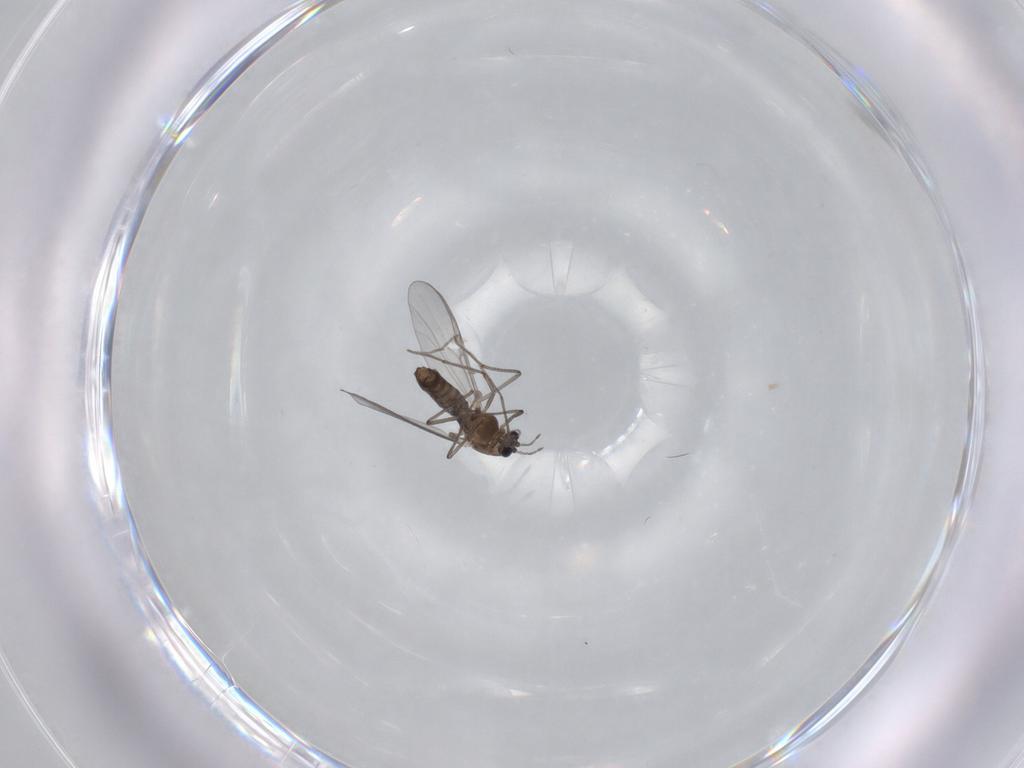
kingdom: Animalia
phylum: Arthropoda
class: Insecta
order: Diptera
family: Chironomidae
